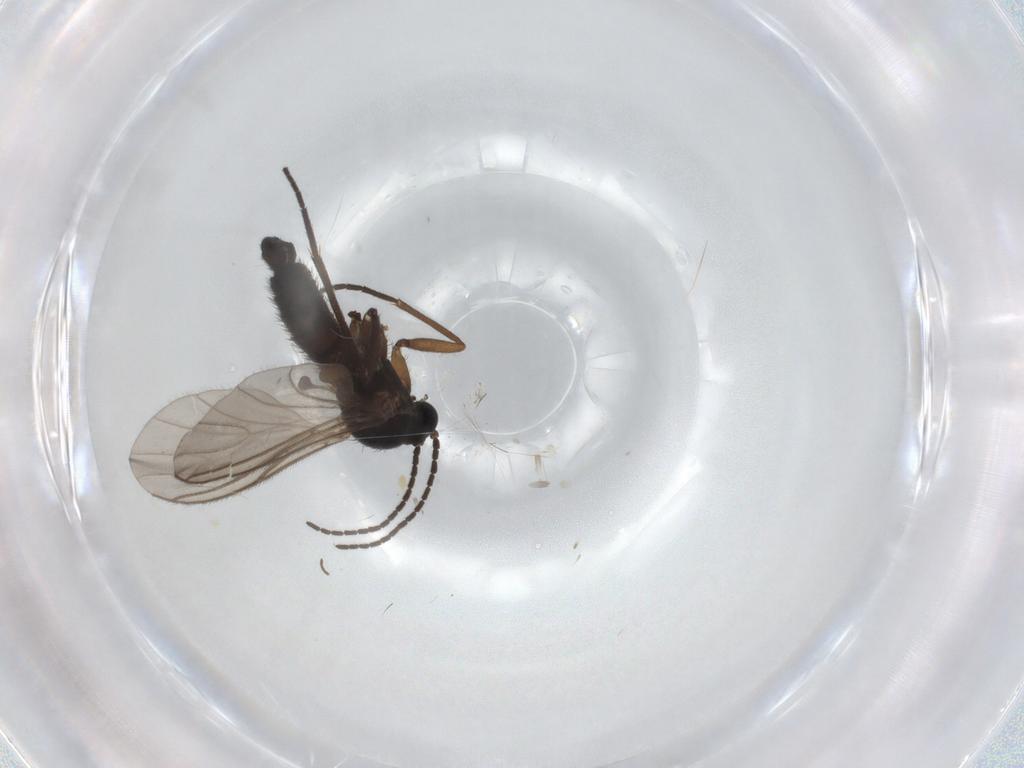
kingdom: Animalia
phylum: Arthropoda
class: Insecta
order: Diptera
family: Sciaridae
